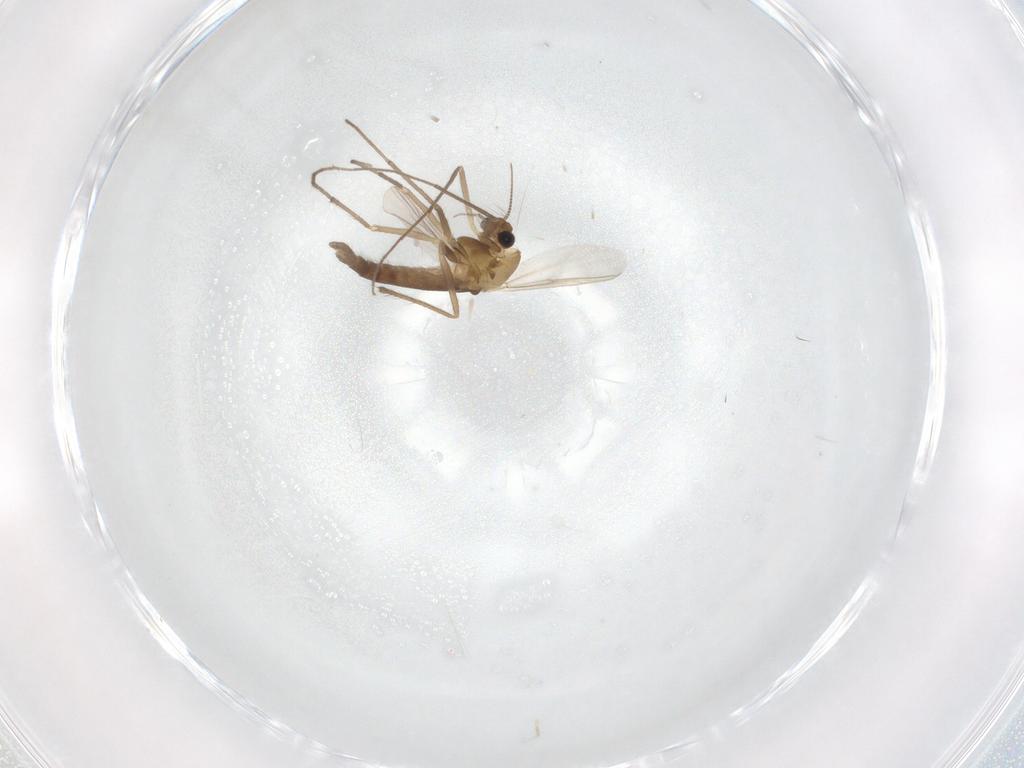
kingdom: Animalia
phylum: Arthropoda
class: Insecta
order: Diptera
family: Chironomidae
